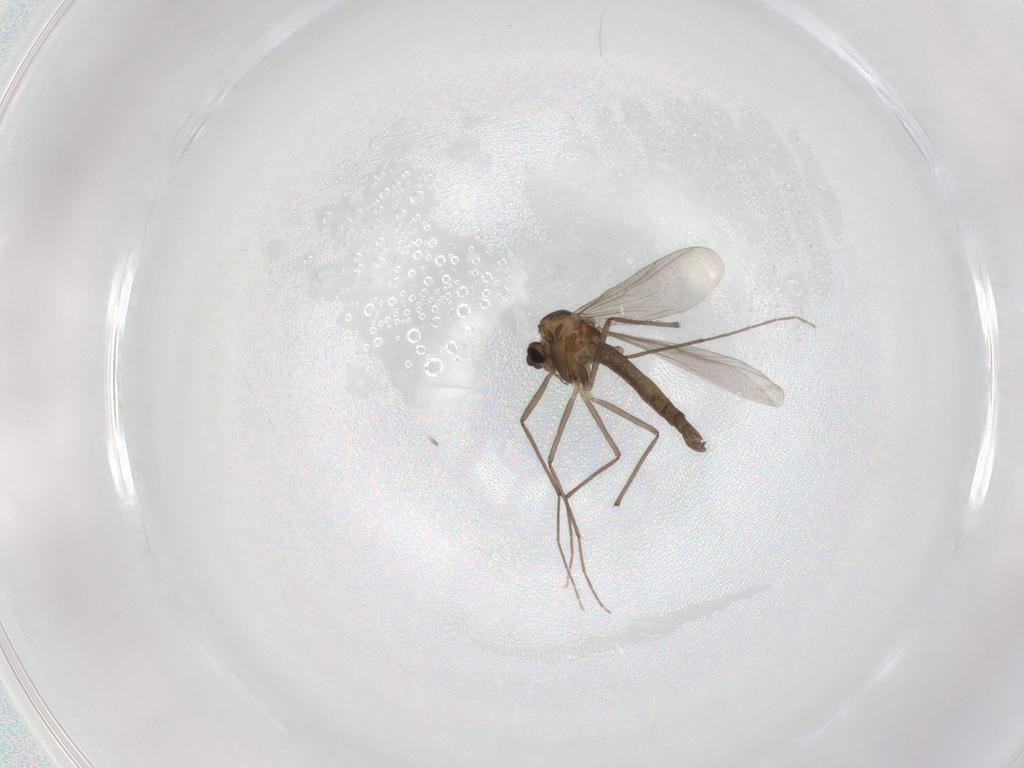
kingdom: Animalia
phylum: Arthropoda
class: Insecta
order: Diptera
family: Chironomidae
